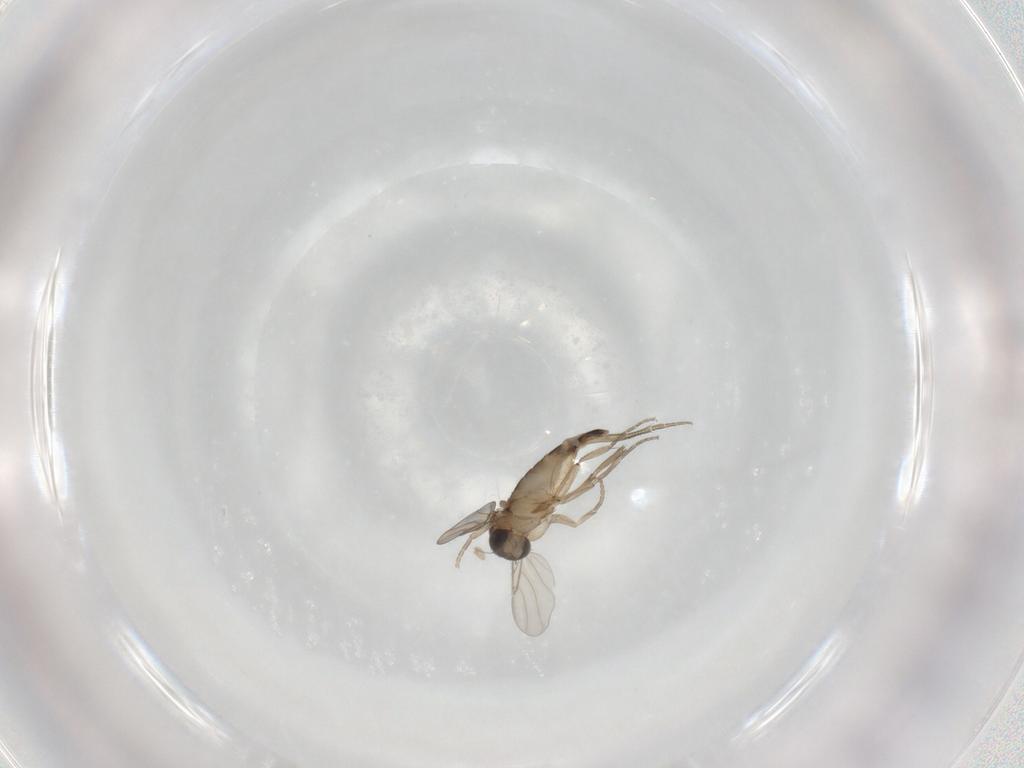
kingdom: Animalia
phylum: Arthropoda
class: Insecta
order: Diptera
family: Phoridae
